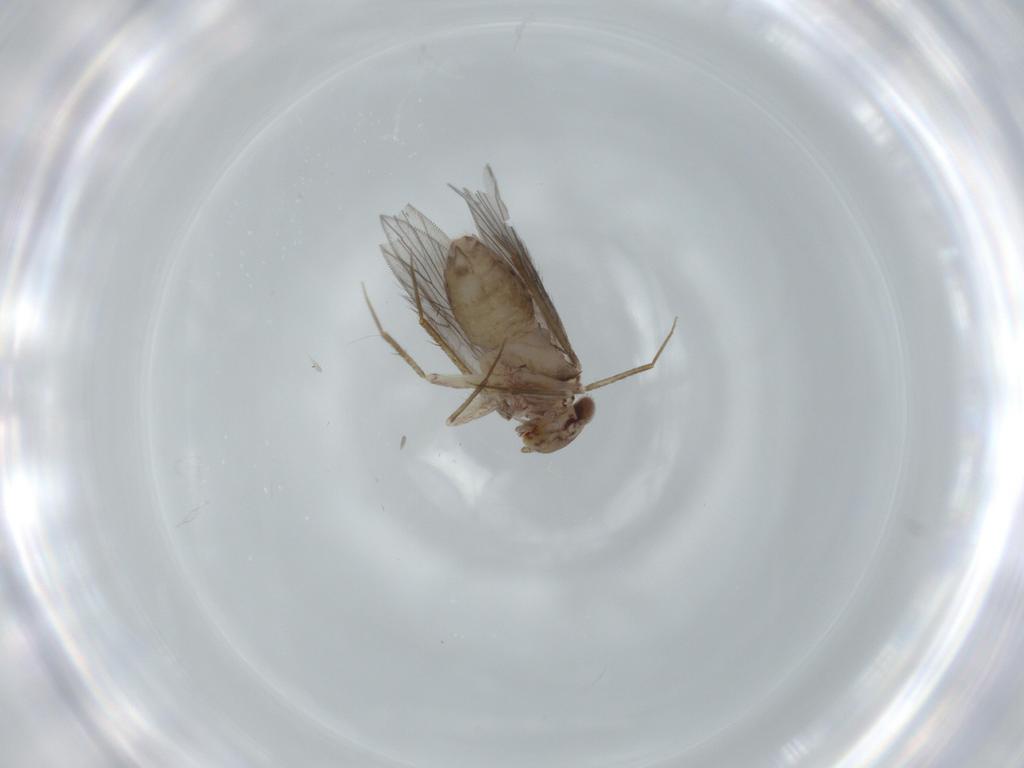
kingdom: Animalia
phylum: Arthropoda
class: Insecta
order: Psocodea
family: Lepidopsocidae
